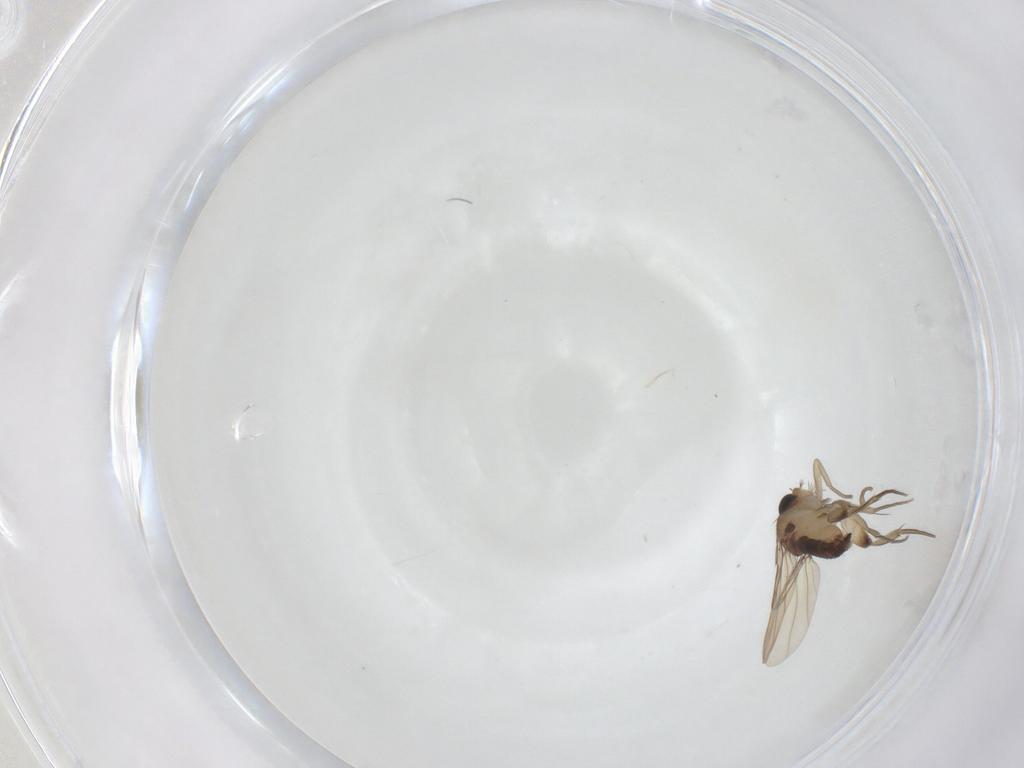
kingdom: Animalia
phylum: Arthropoda
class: Insecta
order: Diptera
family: Phoridae
